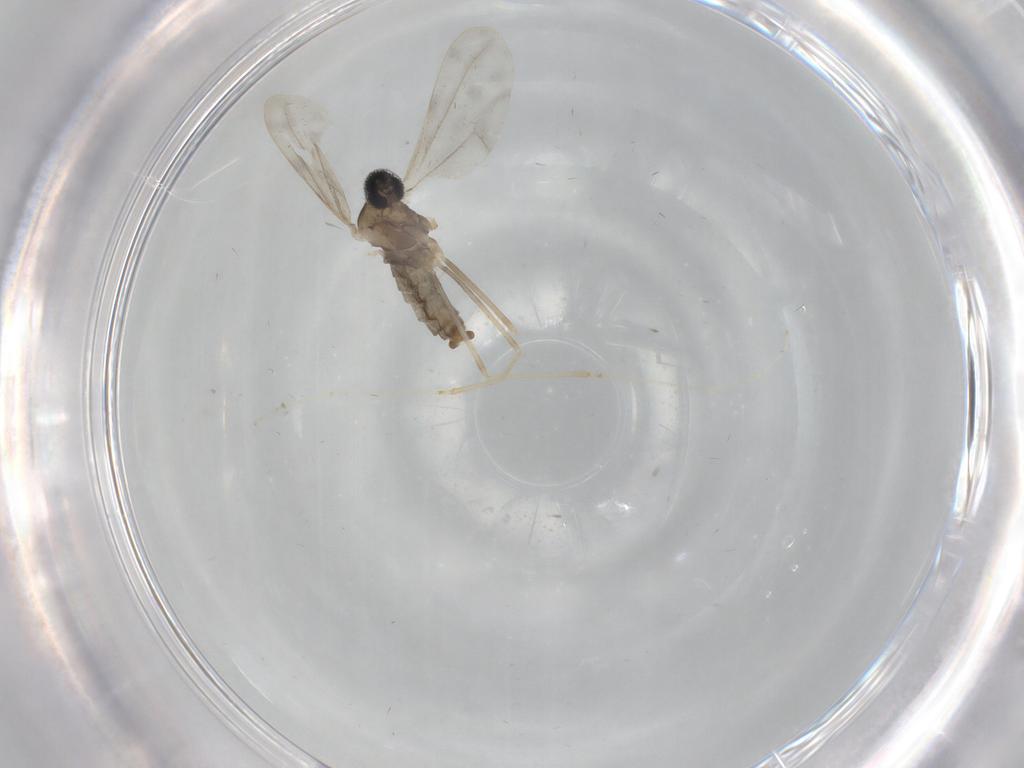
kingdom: Animalia
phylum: Arthropoda
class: Insecta
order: Diptera
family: Cecidomyiidae
